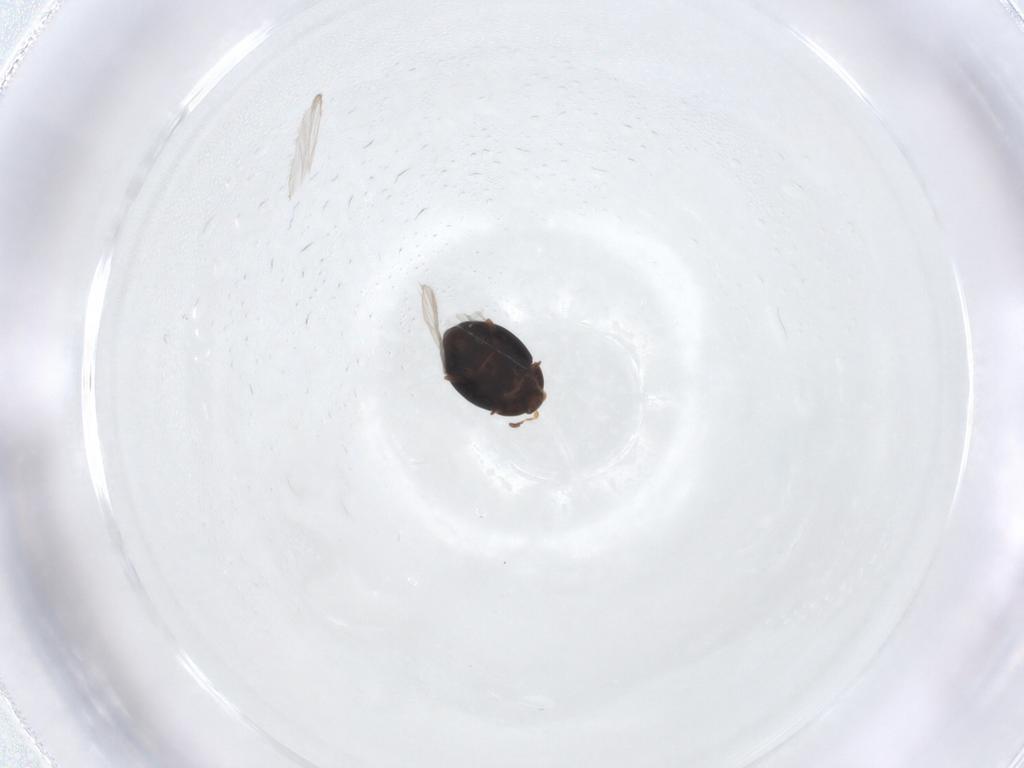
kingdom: Animalia
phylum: Arthropoda
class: Insecta
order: Coleoptera
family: Corylophidae
